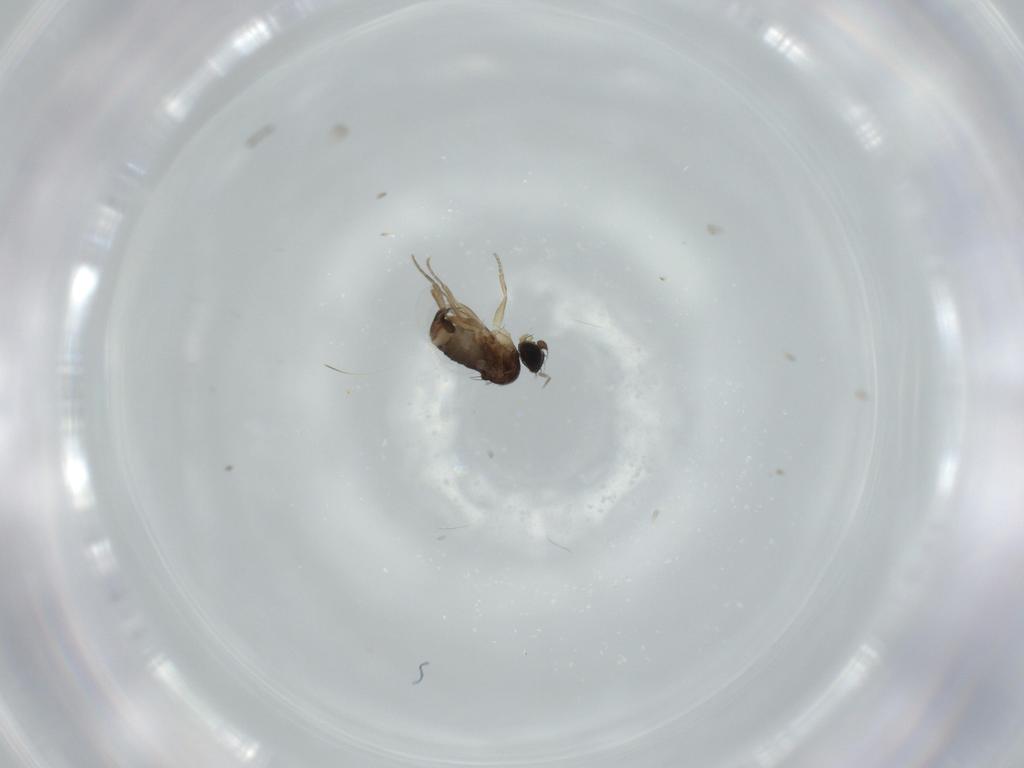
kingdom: Animalia
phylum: Arthropoda
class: Insecta
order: Diptera
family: Phoridae
